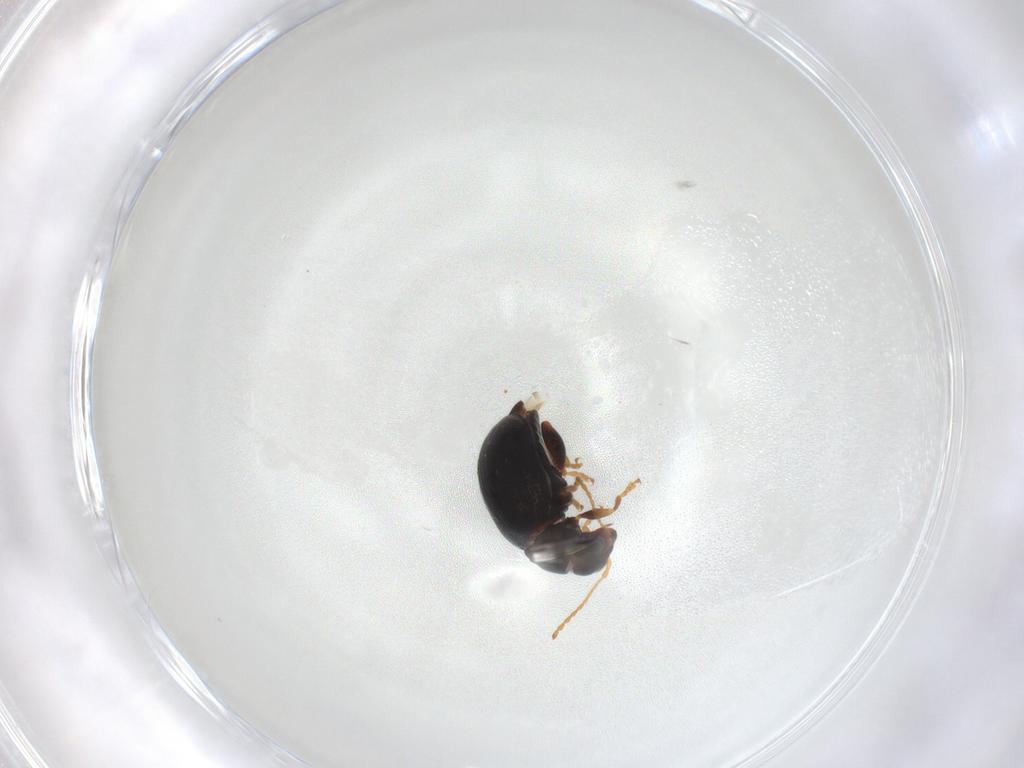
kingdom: Animalia
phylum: Arthropoda
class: Insecta
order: Coleoptera
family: Chrysomelidae
